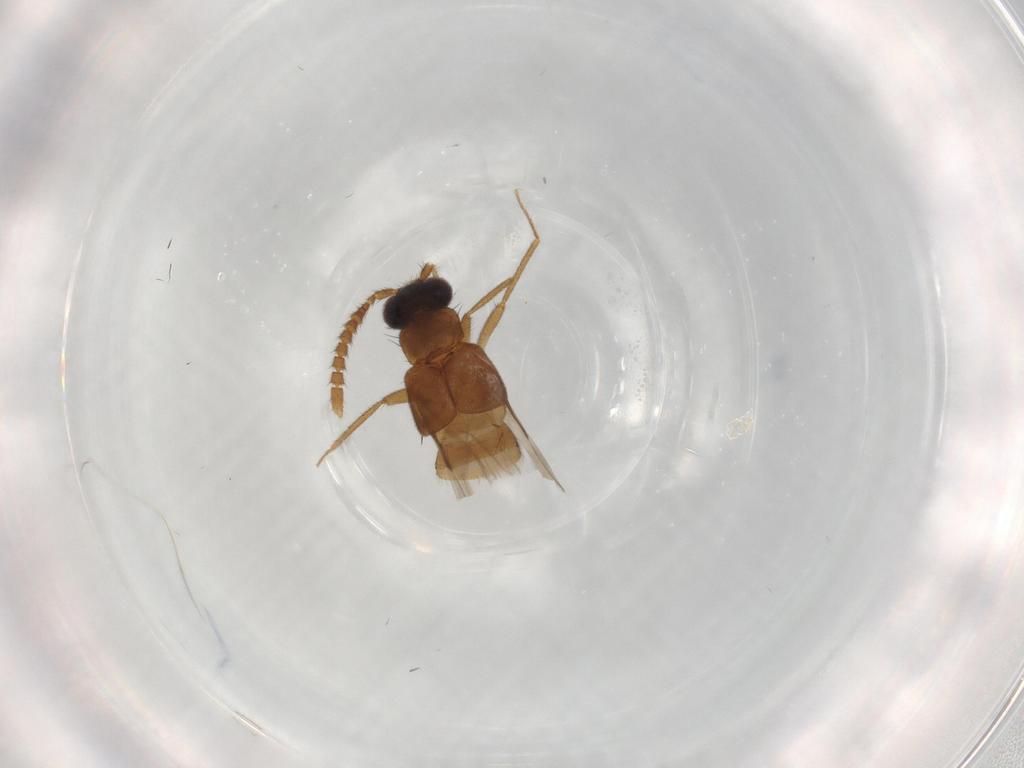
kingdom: Animalia
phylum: Arthropoda
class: Insecta
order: Coleoptera
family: Staphylinidae
